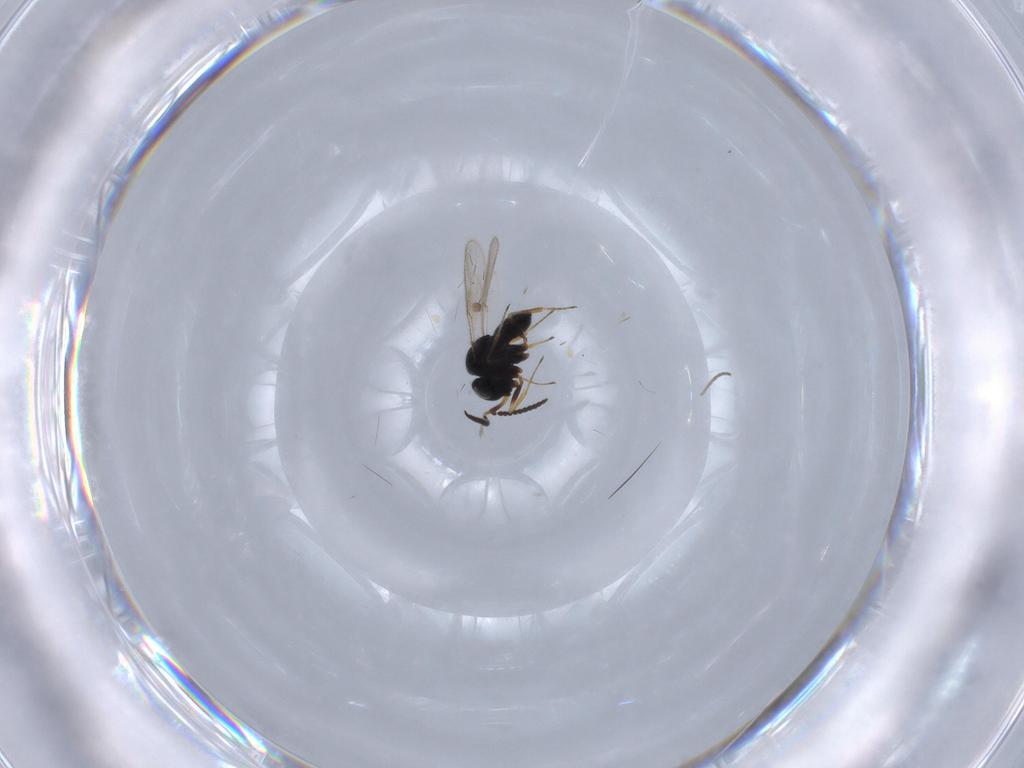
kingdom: Animalia
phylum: Arthropoda
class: Insecta
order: Hymenoptera
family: Scelionidae
